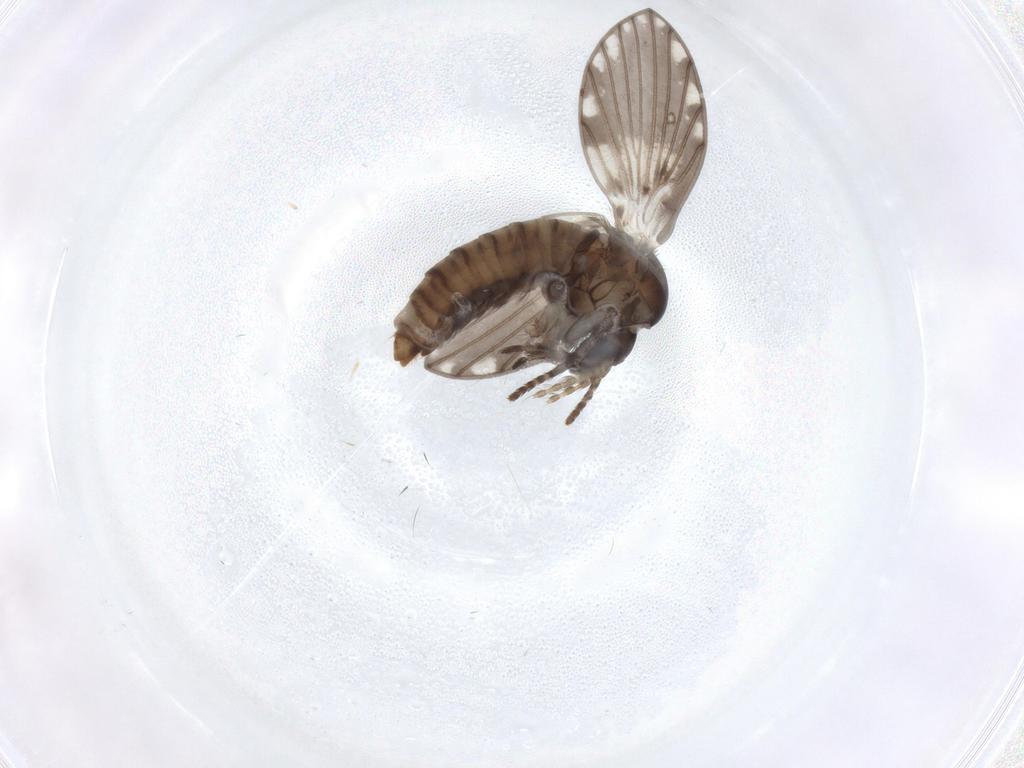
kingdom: Animalia
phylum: Arthropoda
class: Insecta
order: Diptera
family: Psychodidae
